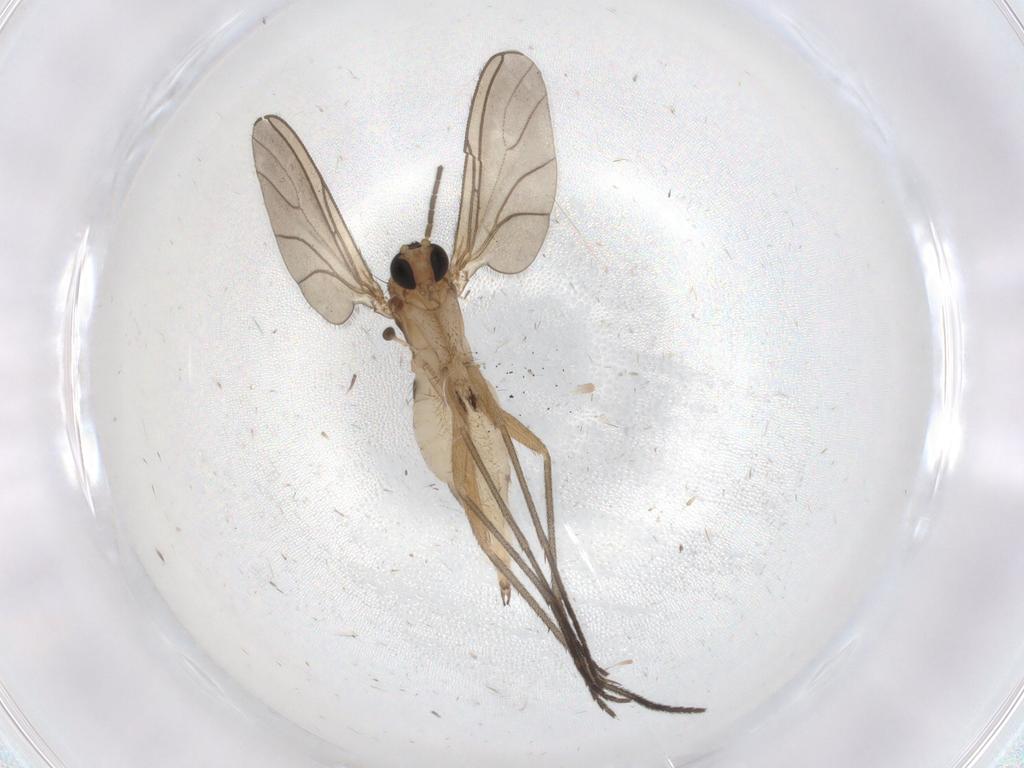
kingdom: Animalia
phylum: Arthropoda
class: Insecta
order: Diptera
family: Sciaridae
